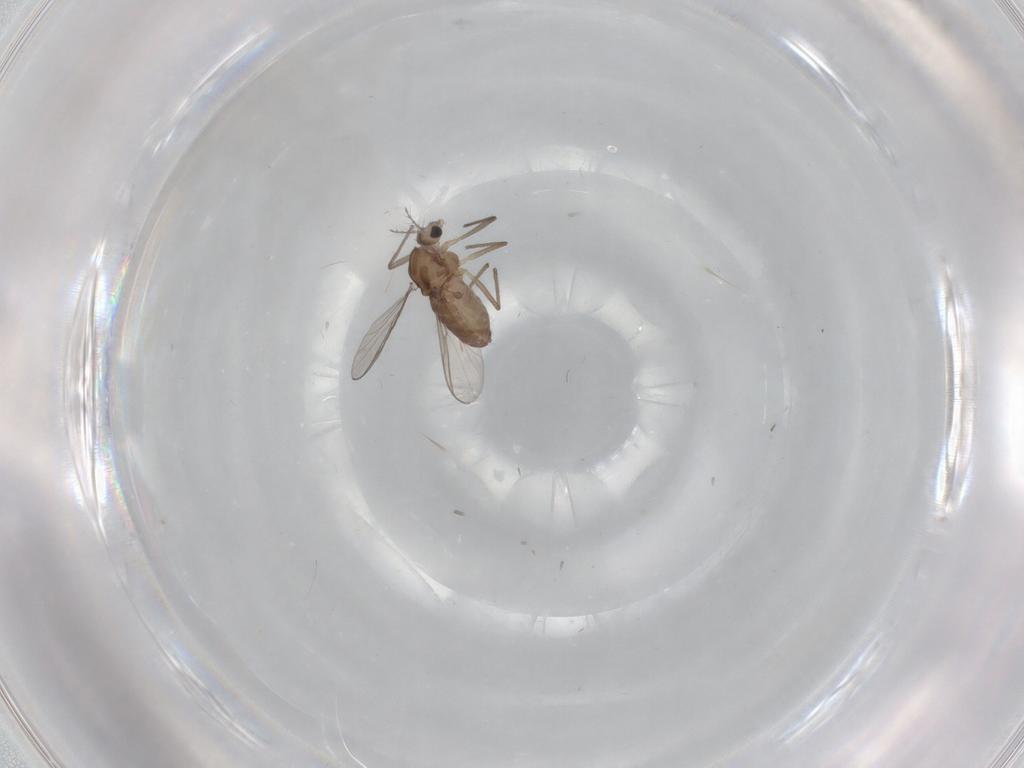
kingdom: Animalia
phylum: Arthropoda
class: Insecta
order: Diptera
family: Chironomidae
